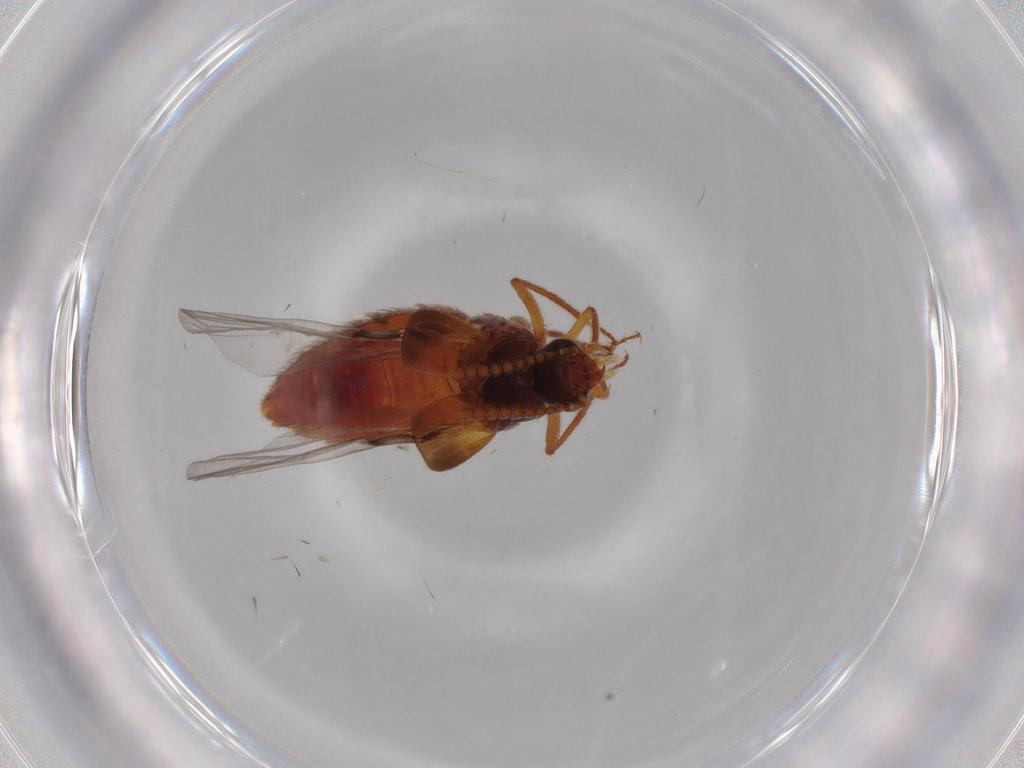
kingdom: Animalia
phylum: Arthropoda
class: Insecta
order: Coleoptera
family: Staphylinidae
